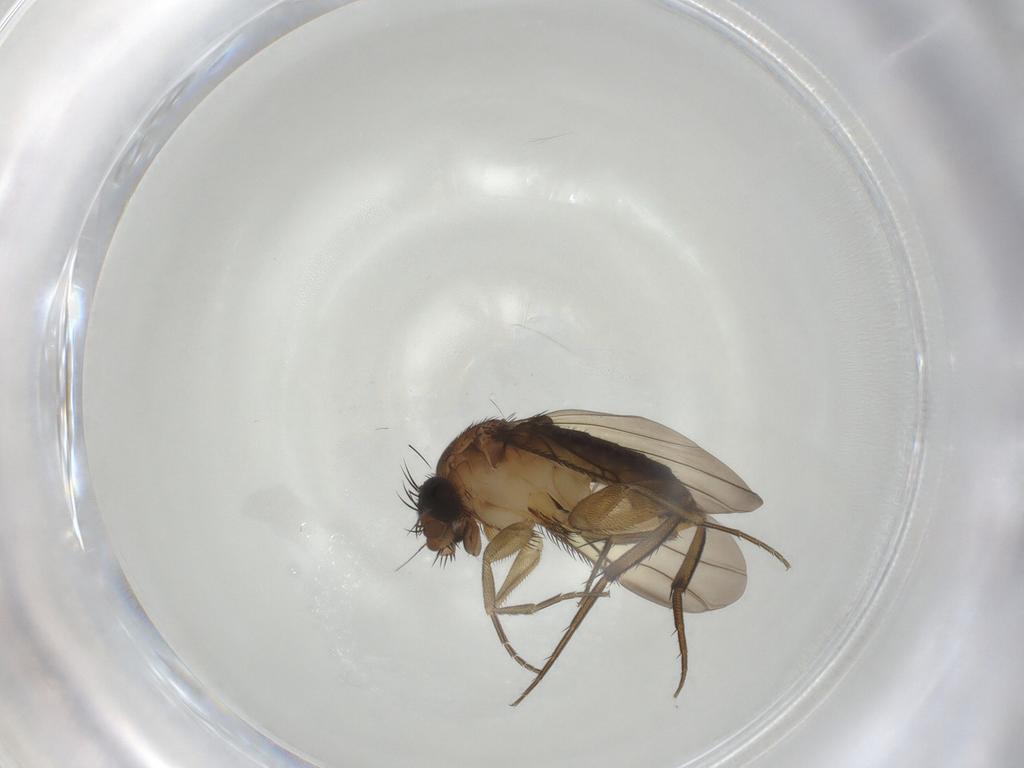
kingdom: Animalia
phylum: Arthropoda
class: Insecta
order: Diptera
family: Phoridae
